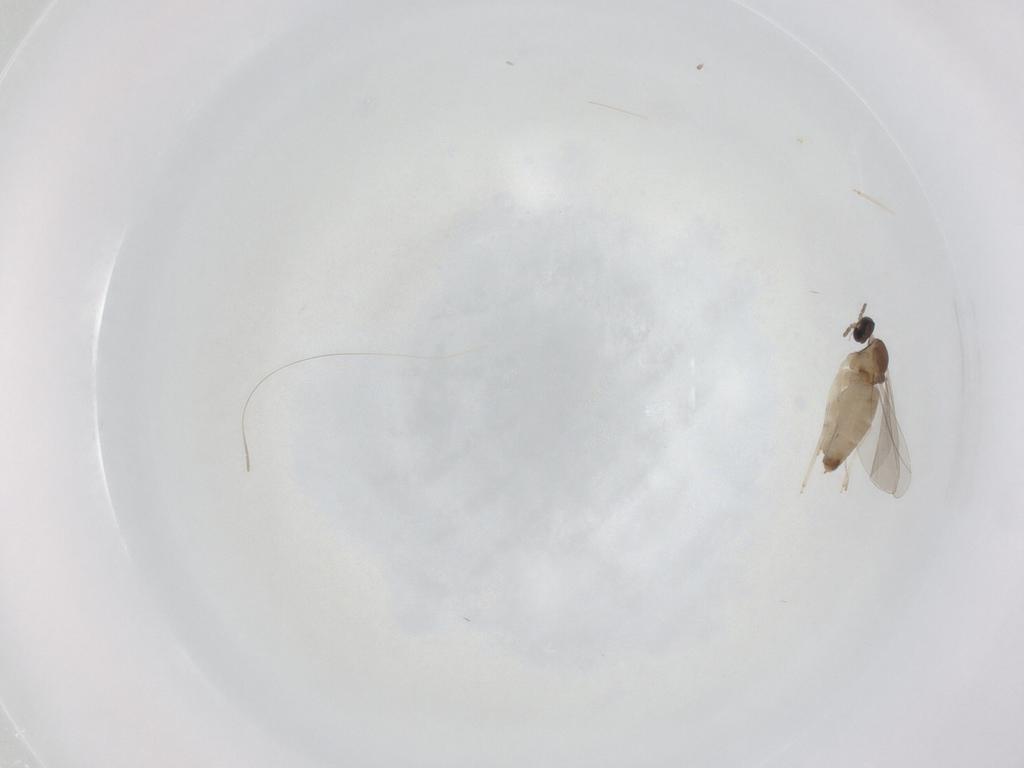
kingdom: Animalia
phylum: Arthropoda
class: Insecta
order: Diptera
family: Cecidomyiidae
